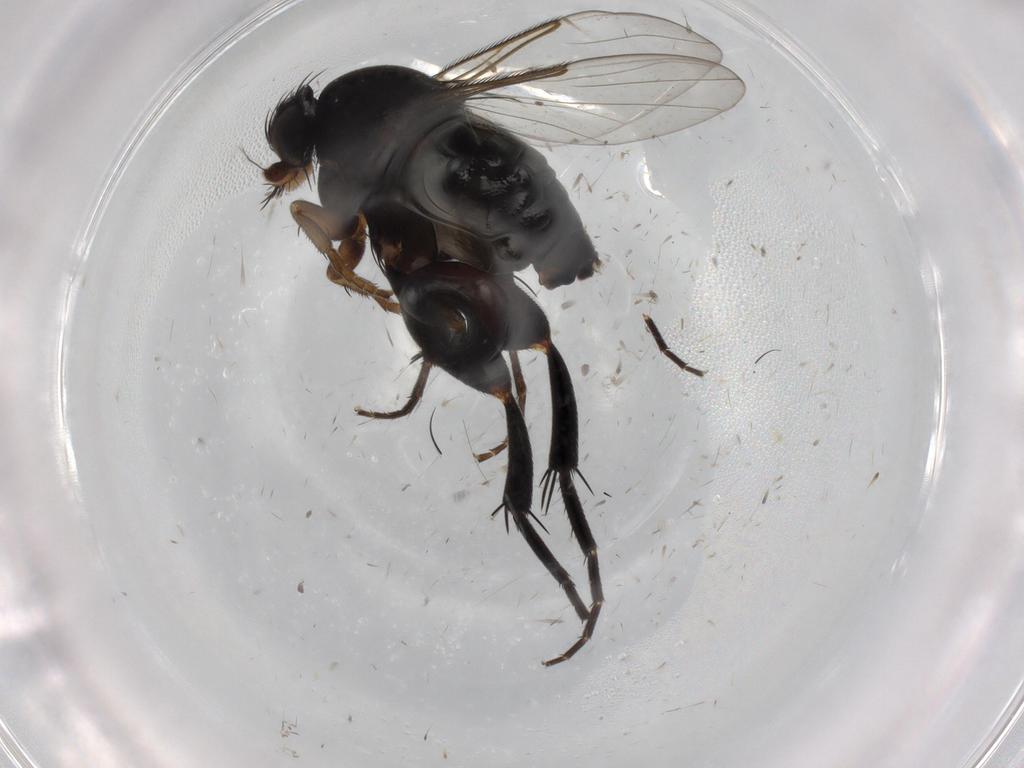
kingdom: Animalia
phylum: Arthropoda
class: Insecta
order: Diptera
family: Phoridae
